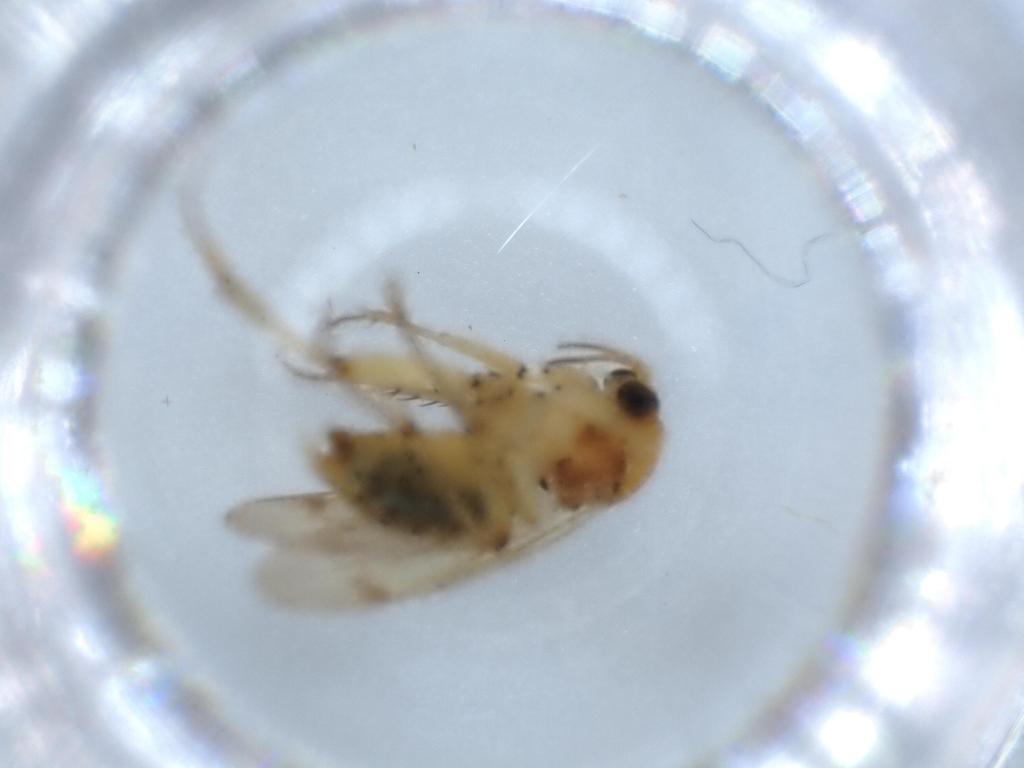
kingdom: Animalia
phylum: Arthropoda
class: Insecta
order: Diptera
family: Mycetophilidae
